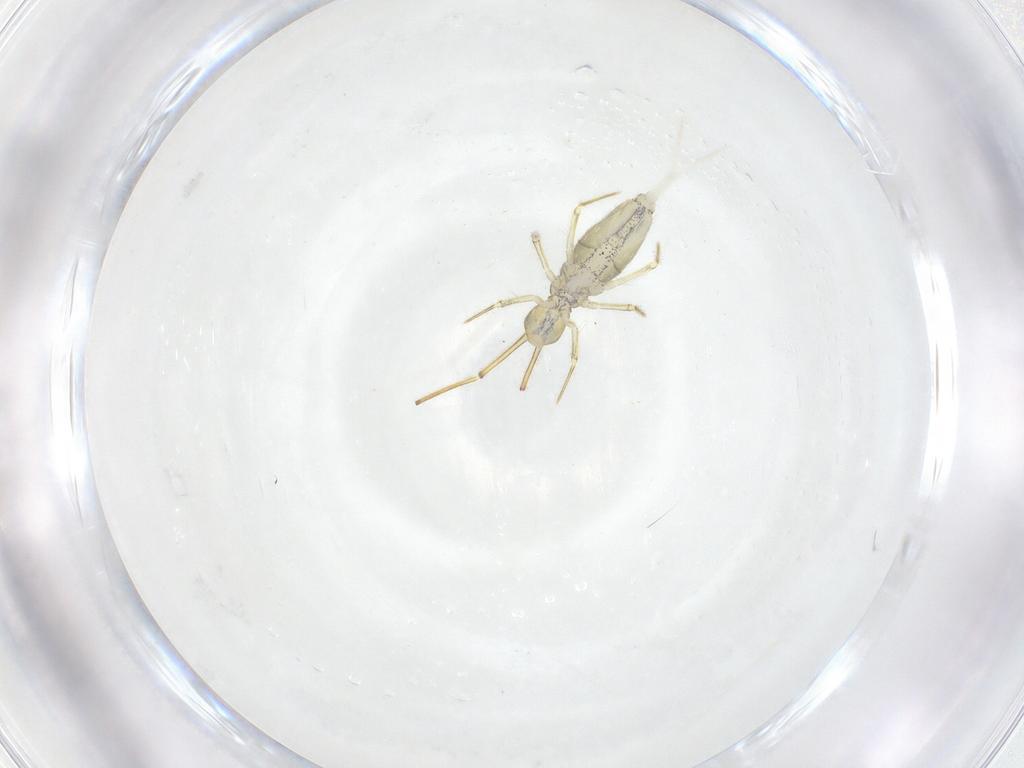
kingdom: Animalia
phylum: Arthropoda
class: Collembola
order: Entomobryomorpha
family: Entomobryidae
